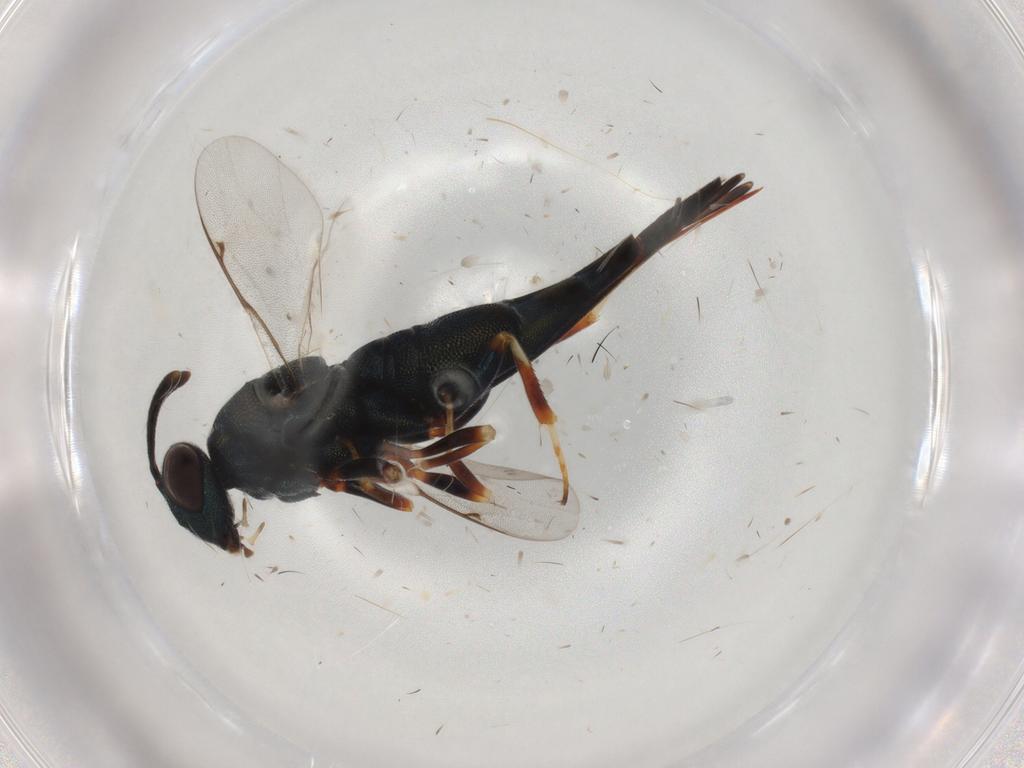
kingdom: Animalia
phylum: Arthropoda
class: Insecta
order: Hymenoptera
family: Lyciscidae
